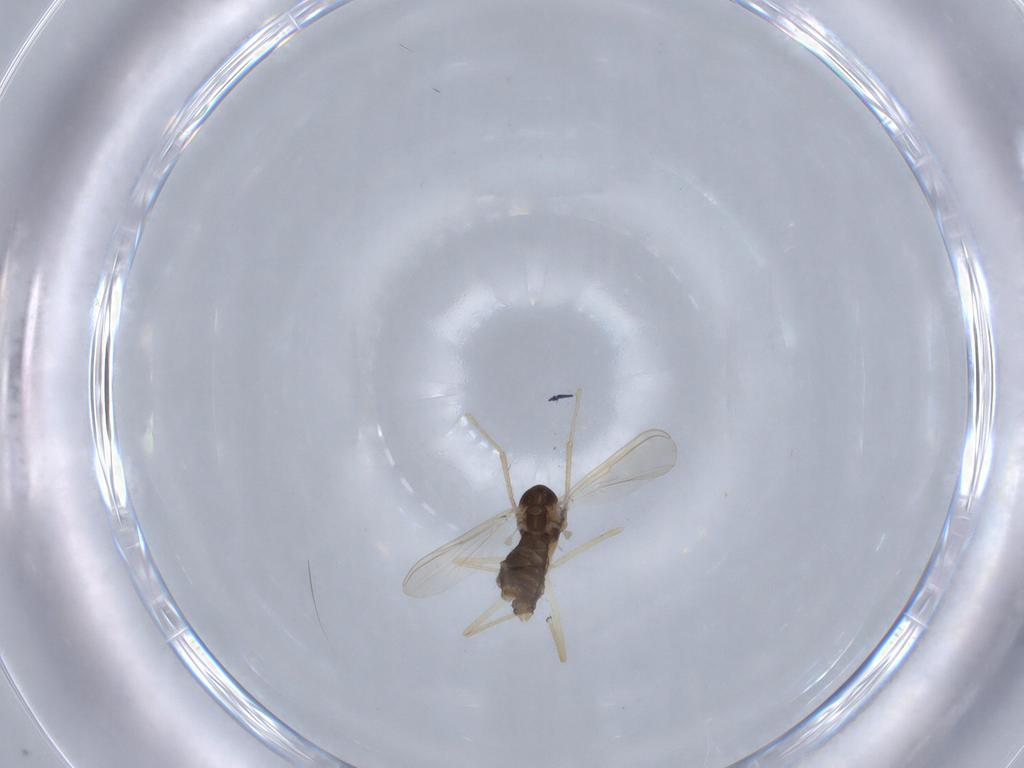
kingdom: Animalia
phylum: Arthropoda
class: Insecta
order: Diptera
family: Chironomidae
